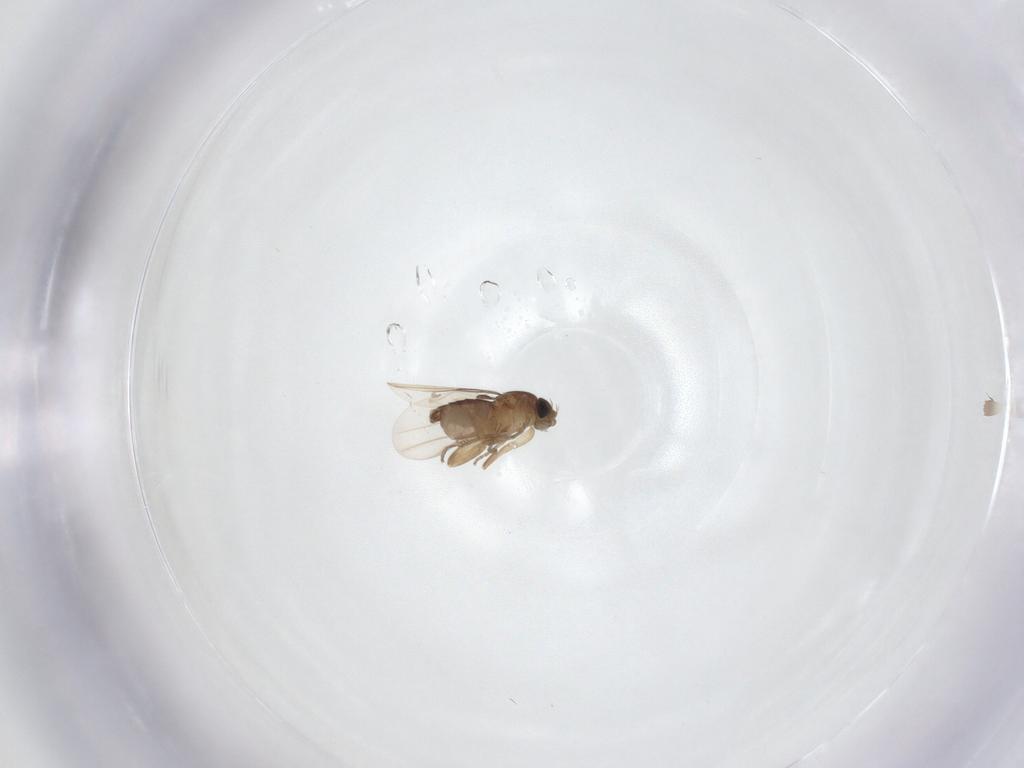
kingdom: Animalia
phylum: Arthropoda
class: Insecta
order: Diptera
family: Phoridae
